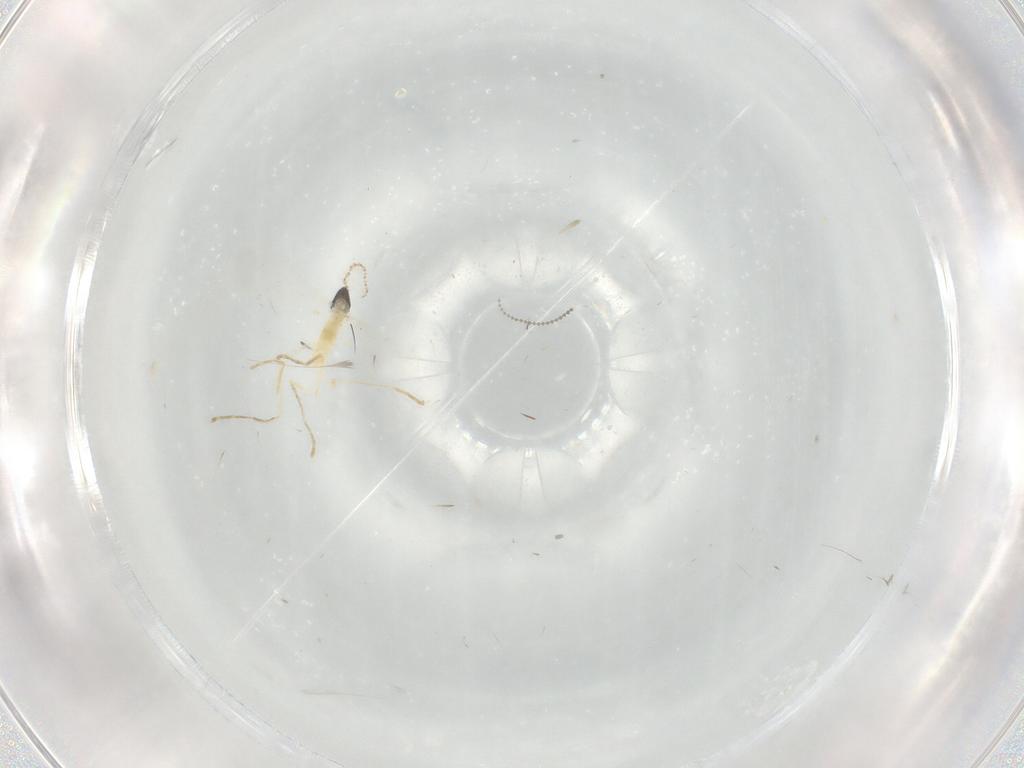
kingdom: Animalia
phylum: Arthropoda
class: Insecta
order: Diptera
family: Cecidomyiidae
